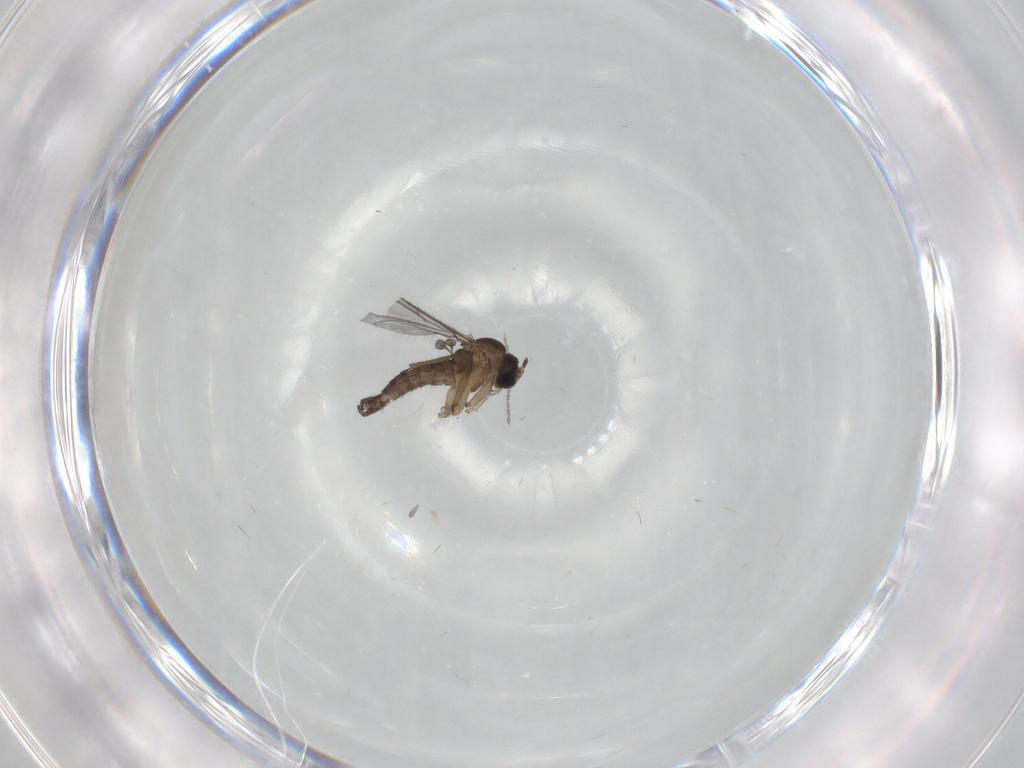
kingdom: Animalia
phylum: Arthropoda
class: Insecta
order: Diptera
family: Sciaridae
